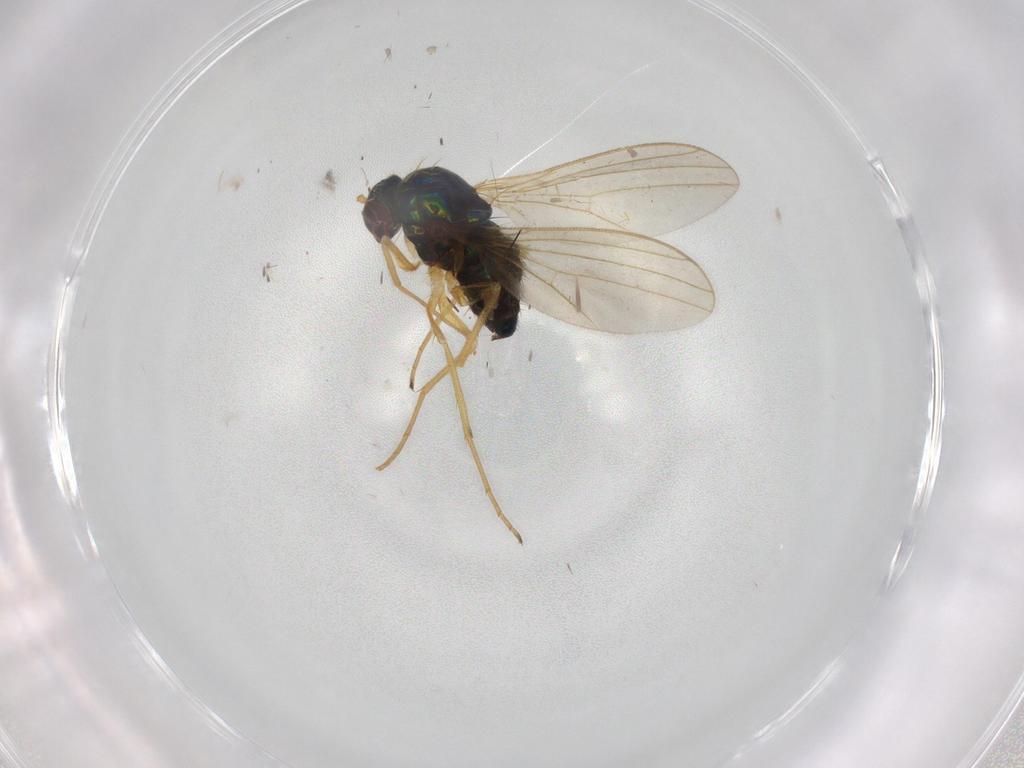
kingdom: Animalia
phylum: Arthropoda
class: Insecta
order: Diptera
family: Dolichopodidae
